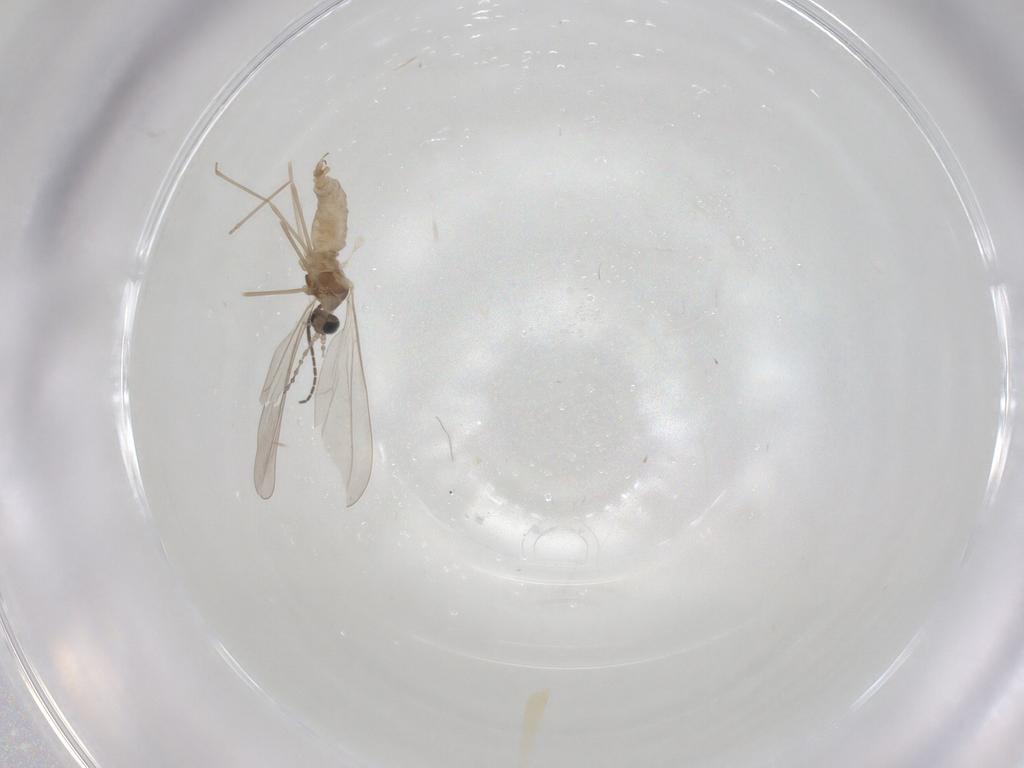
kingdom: Animalia
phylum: Arthropoda
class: Insecta
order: Diptera
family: Cecidomyiidae
